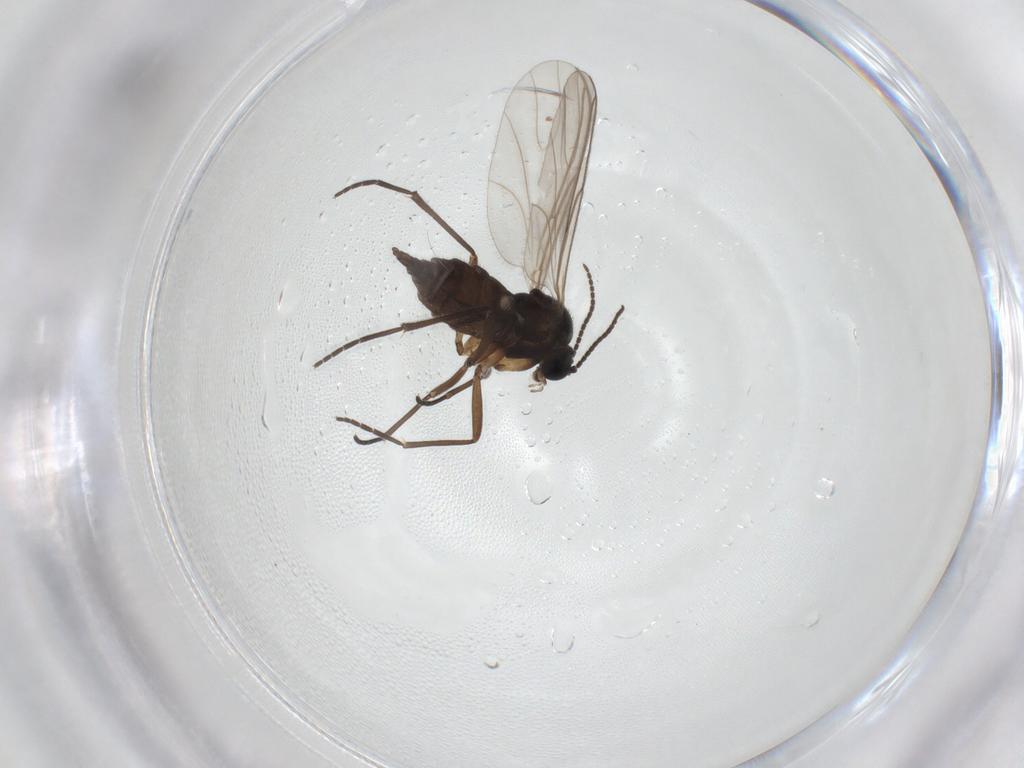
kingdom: Animalia
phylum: Arthropoda
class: Insecta
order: Diptera
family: Sciaridae
